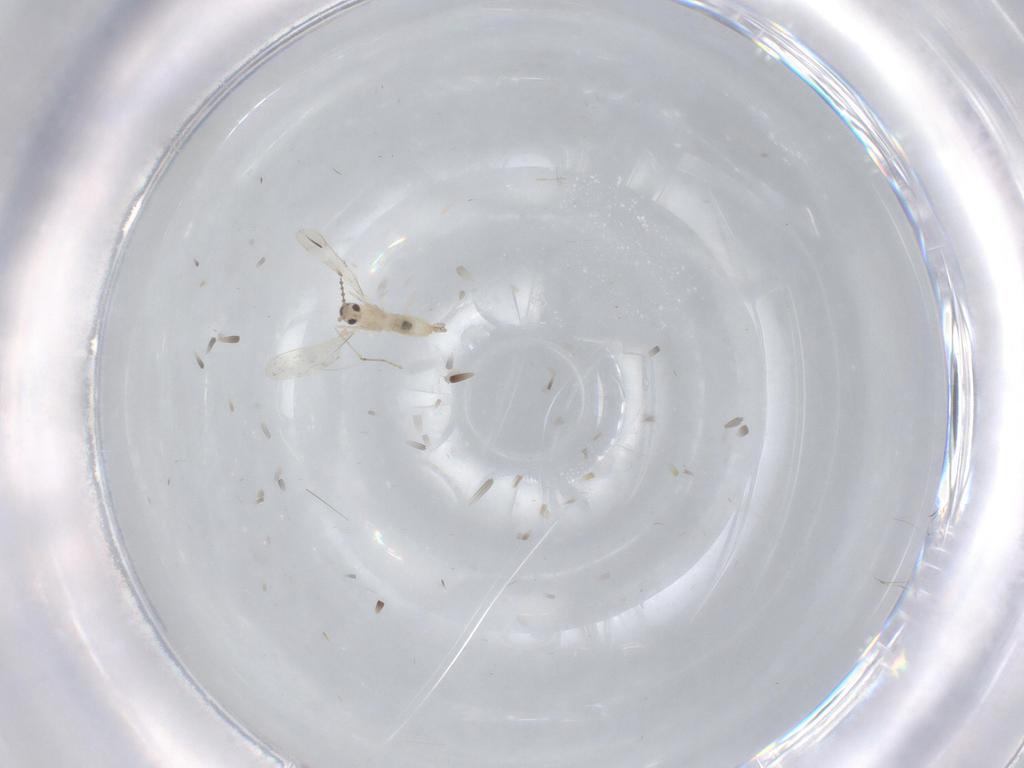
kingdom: Animalia
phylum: Arthropoda
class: Insecta
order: Diptera
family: Cecidomyiidae
